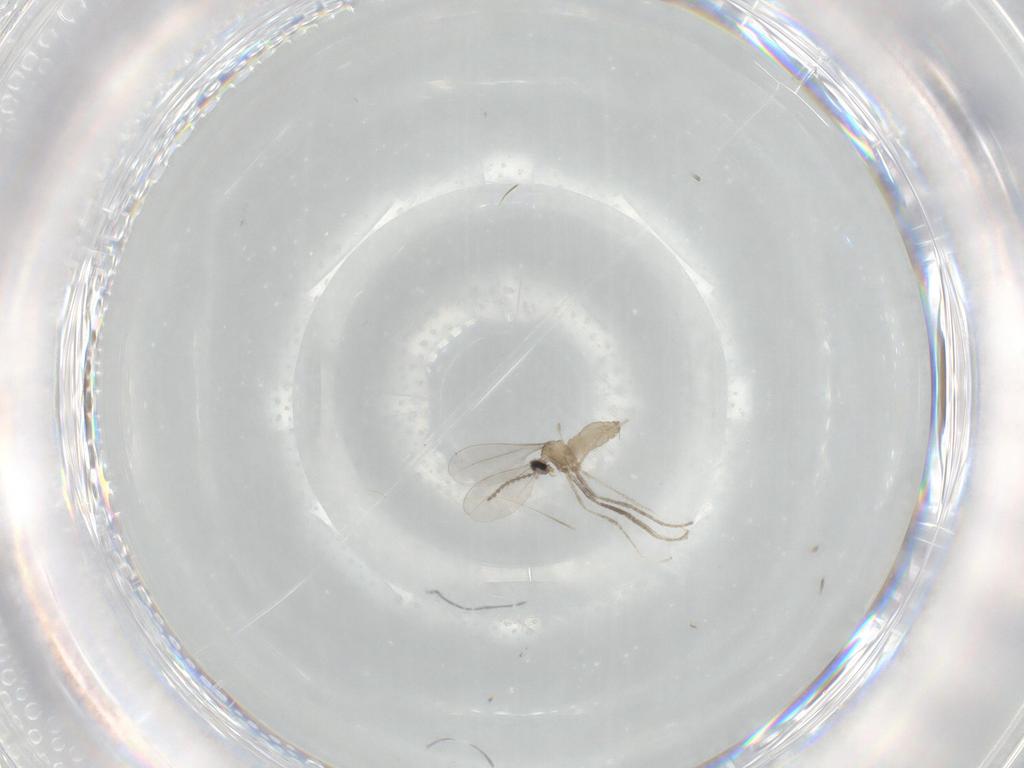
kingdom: Animalia
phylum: Arthropoda
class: Insecta
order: Diptera
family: Cecidomyiidae
